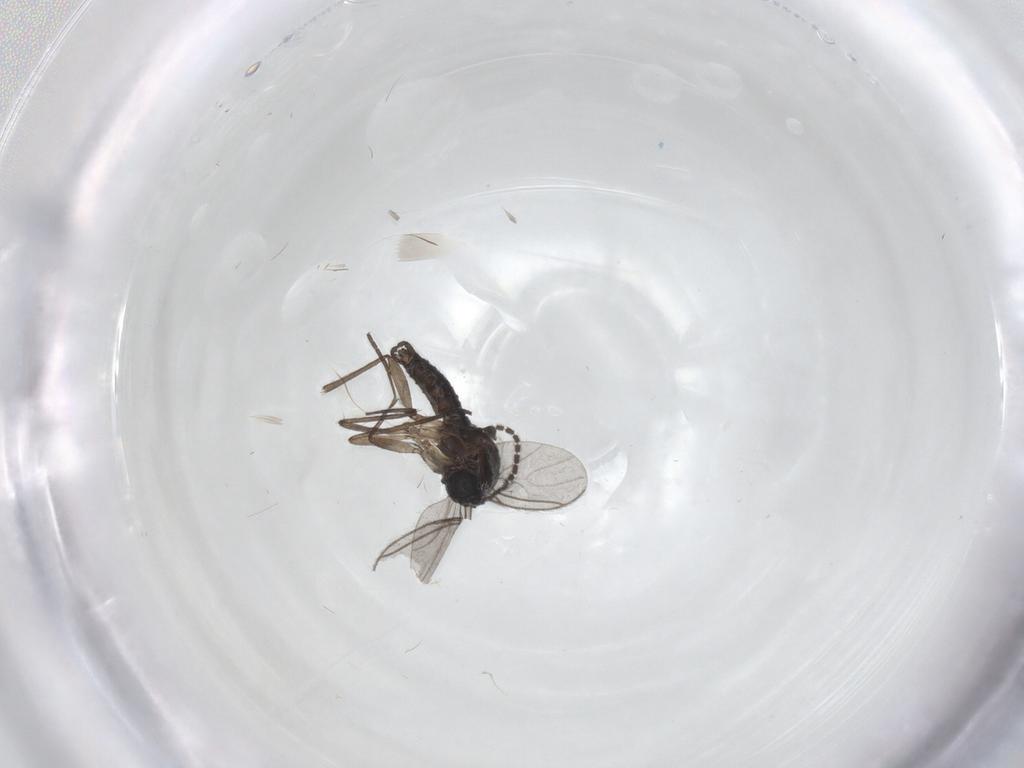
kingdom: Animalia
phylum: Arthropoda
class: Insecta
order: Diptera
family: Sciaridae
